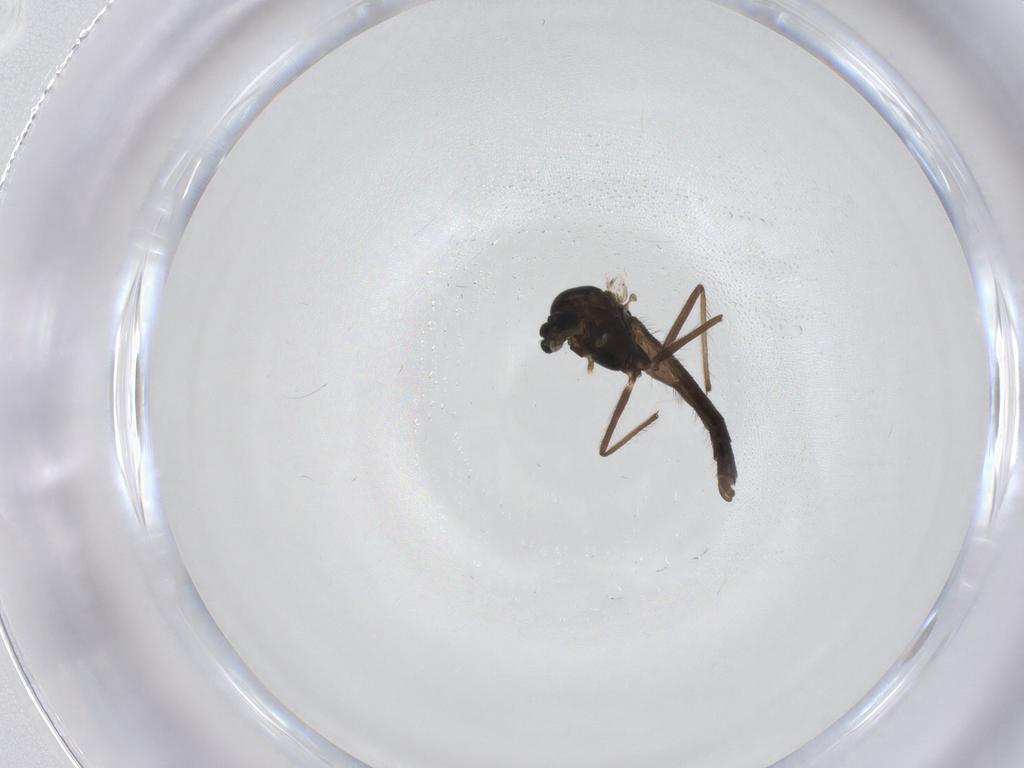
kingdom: Animalia
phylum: Arthropoda
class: Insecta
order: Diptera
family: Chironomidae
